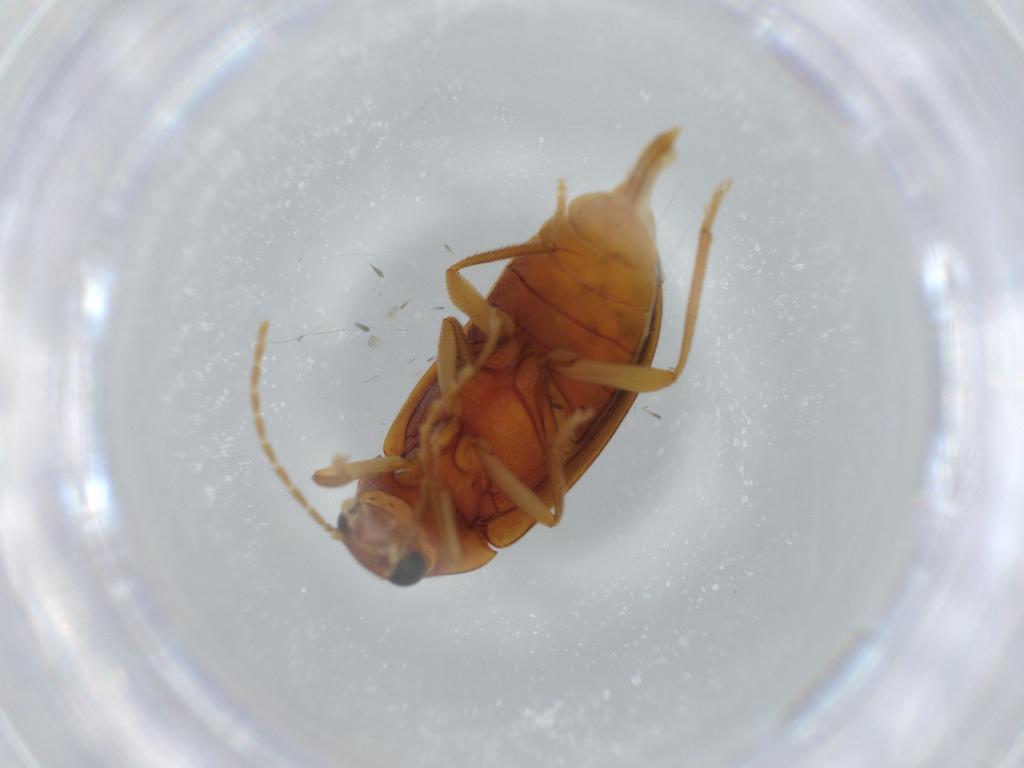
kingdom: Animalia
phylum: Arthropoda
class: Insecta
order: Coleoptera
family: Ptilodactylidae
